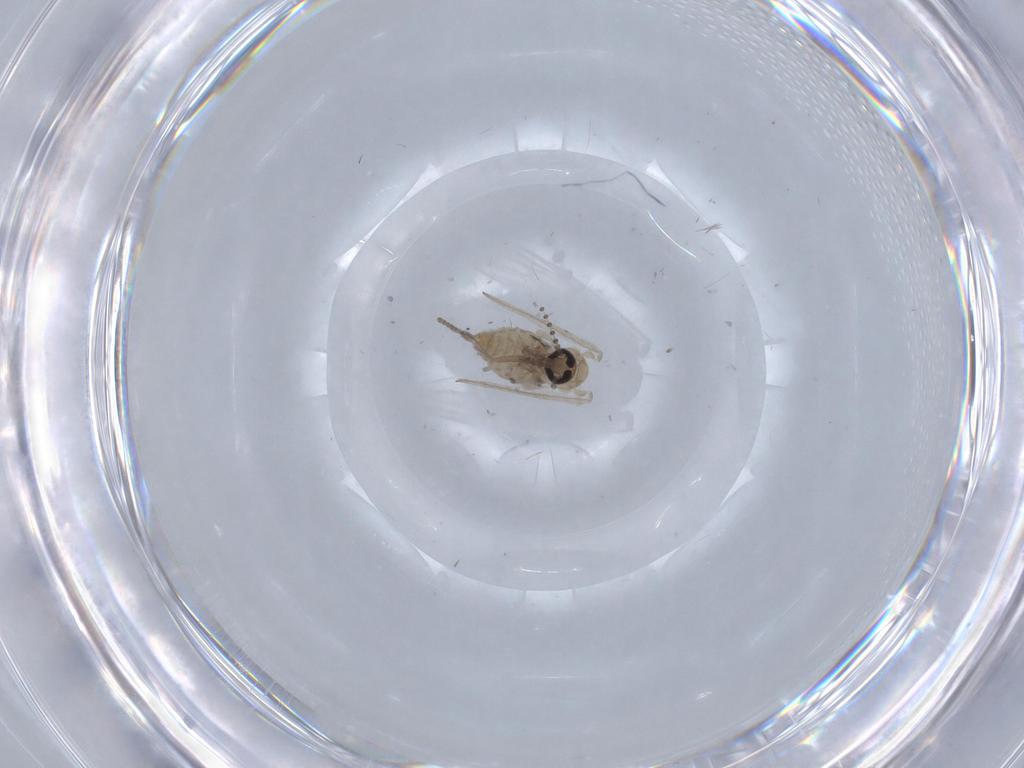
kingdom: Animalia
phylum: Arthropoda
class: Insecta
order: Diptera
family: Psychodidae
